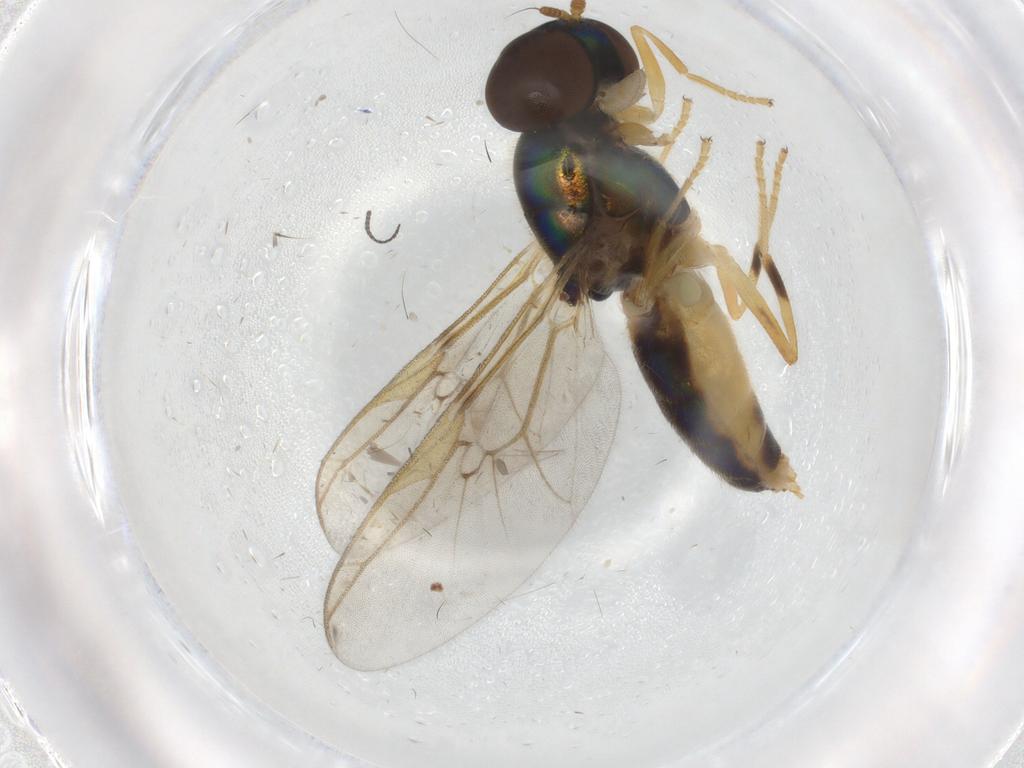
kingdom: Animalia
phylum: Arthropoda
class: Insecta
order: Diptera
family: Ceratopogonidae
